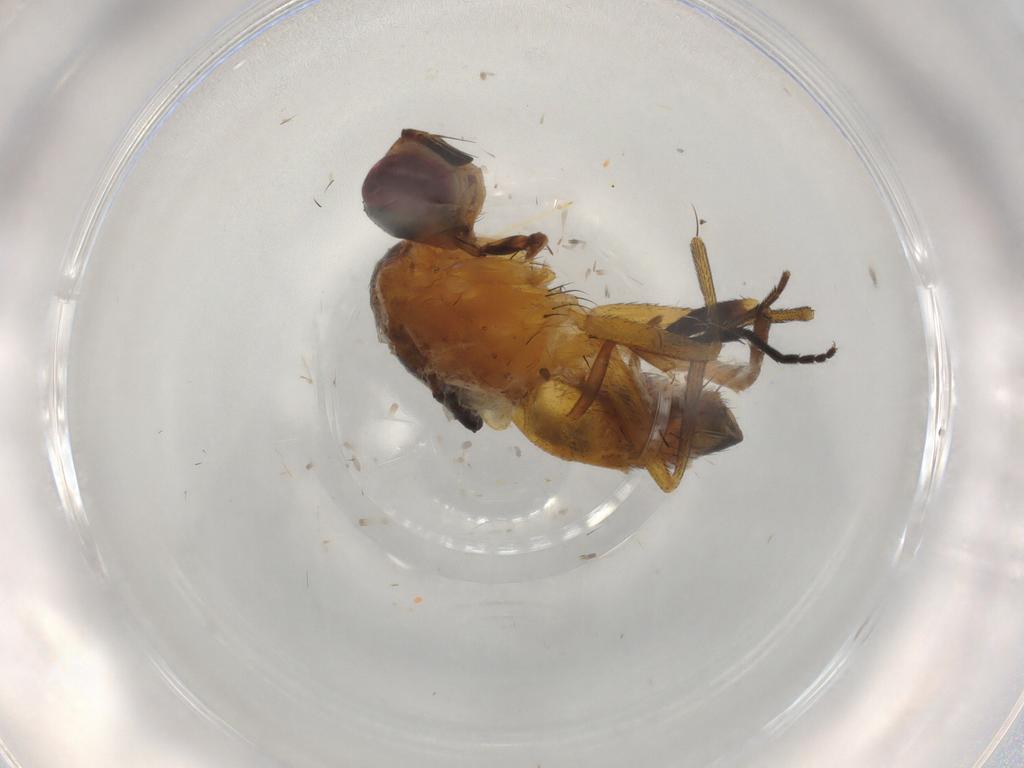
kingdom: Animalia
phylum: Arthropoda
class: Insecta
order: Diptera
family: Muscidae
